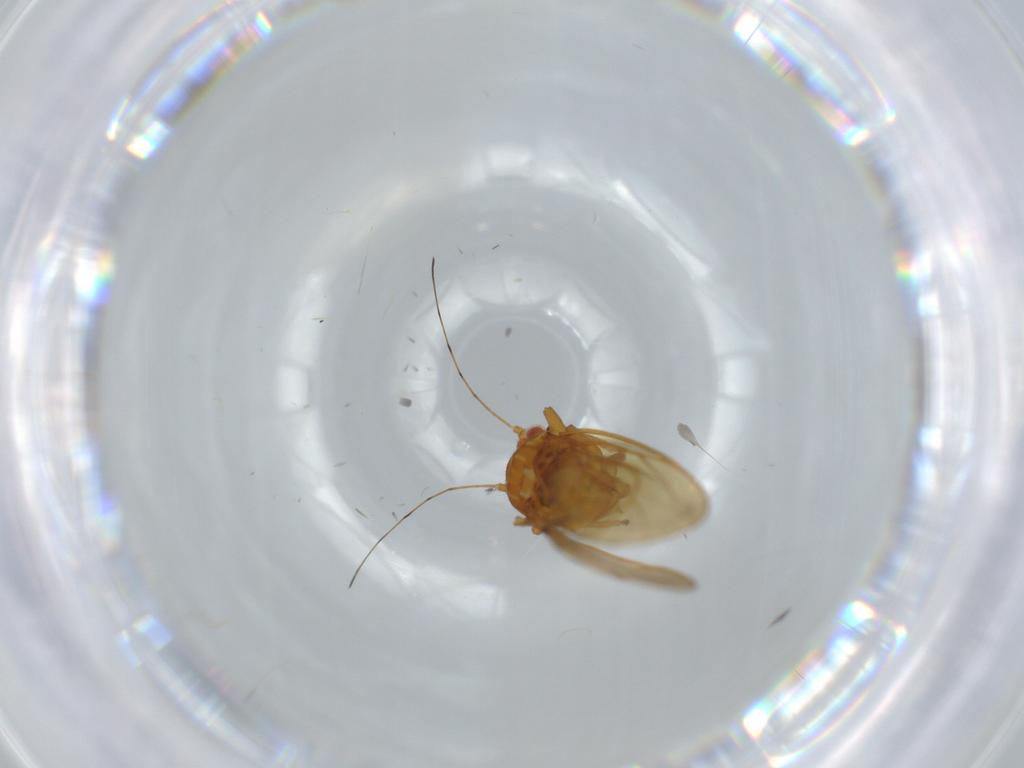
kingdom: Animalia
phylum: Arthropoda
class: Insecta
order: Hemiptera
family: Psylloidea_incertae_sedis
